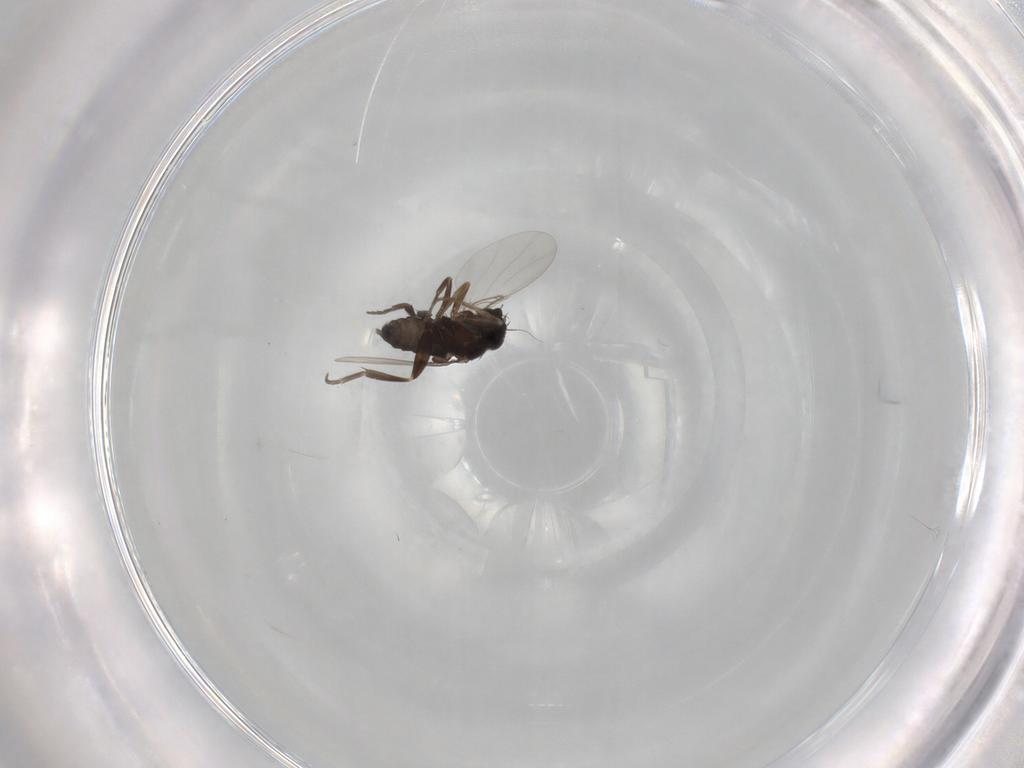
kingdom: Animalia
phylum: Arthropoda
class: Insecta
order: Diptera
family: Phoridae
